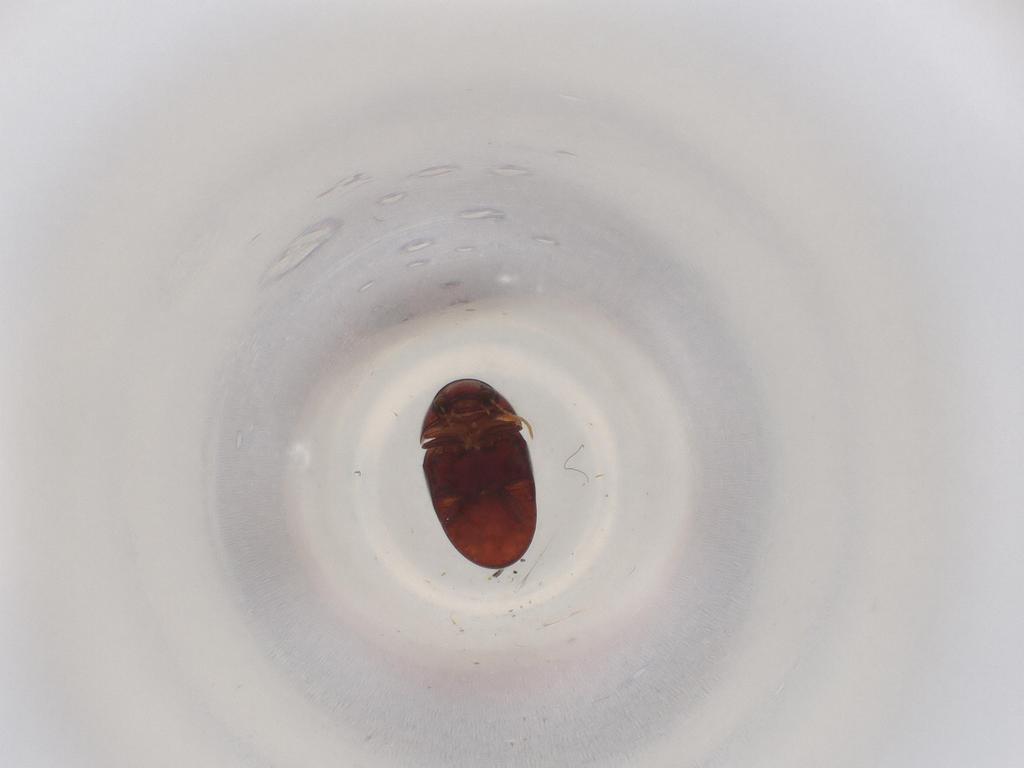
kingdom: Animalia
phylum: Arthropoda
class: Insecta
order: Coleoptera
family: Ptinidae
